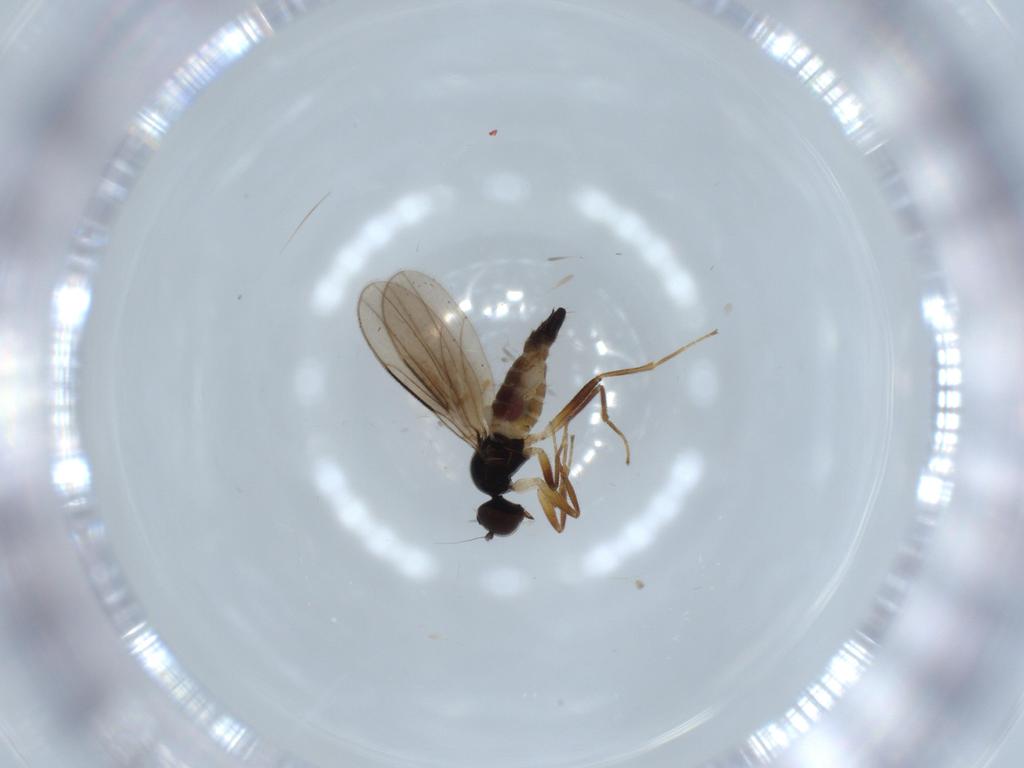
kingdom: Animalia
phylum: Arthropoda
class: Insecta
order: Diptera
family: Hybotidae
